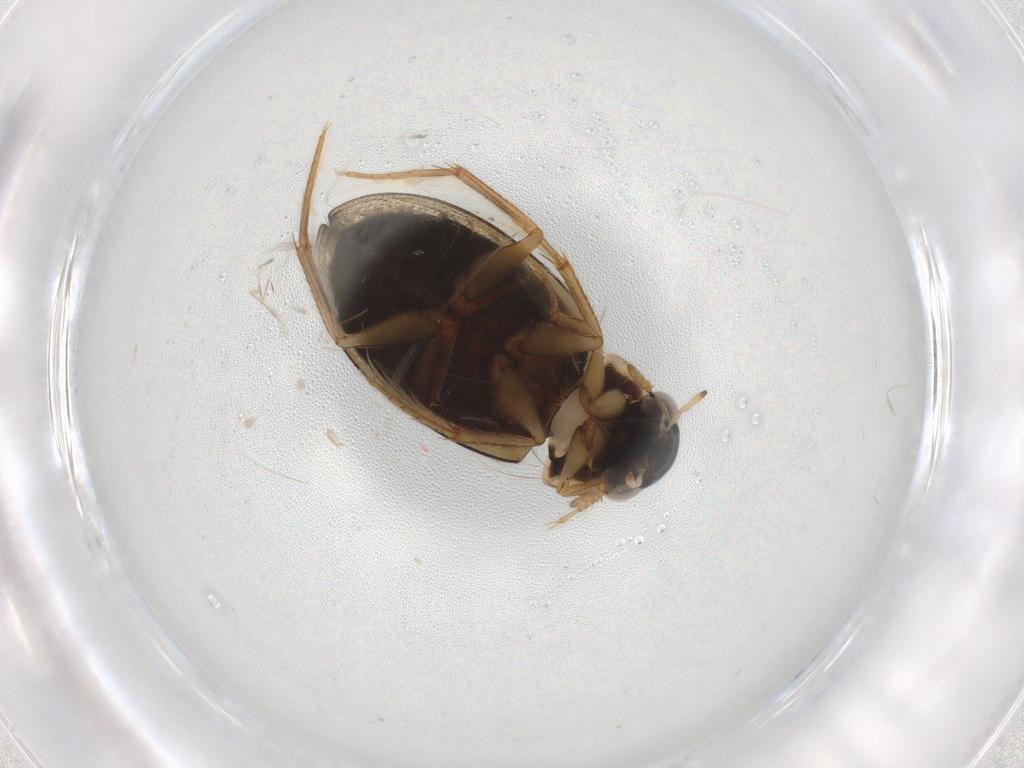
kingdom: Animalia
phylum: Arthropoda
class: Insecta
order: Coleoptera
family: Hydrophilidae
